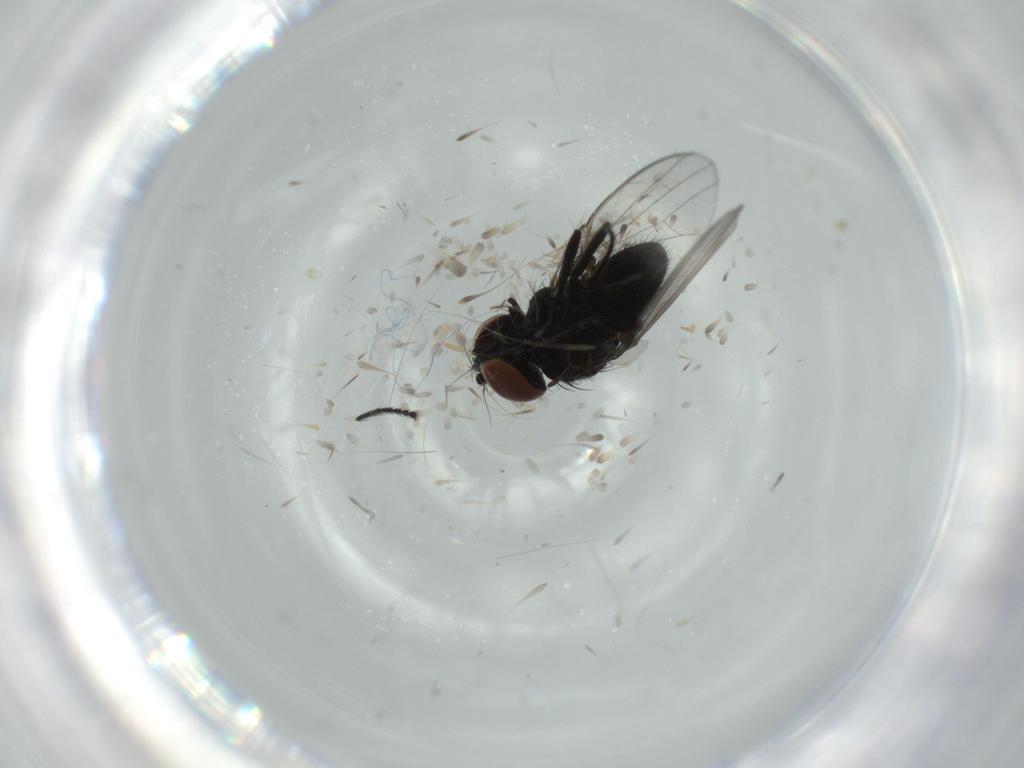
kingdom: Animalia
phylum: Arthropoda
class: Insecta
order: Diptera
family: Milichiidae
